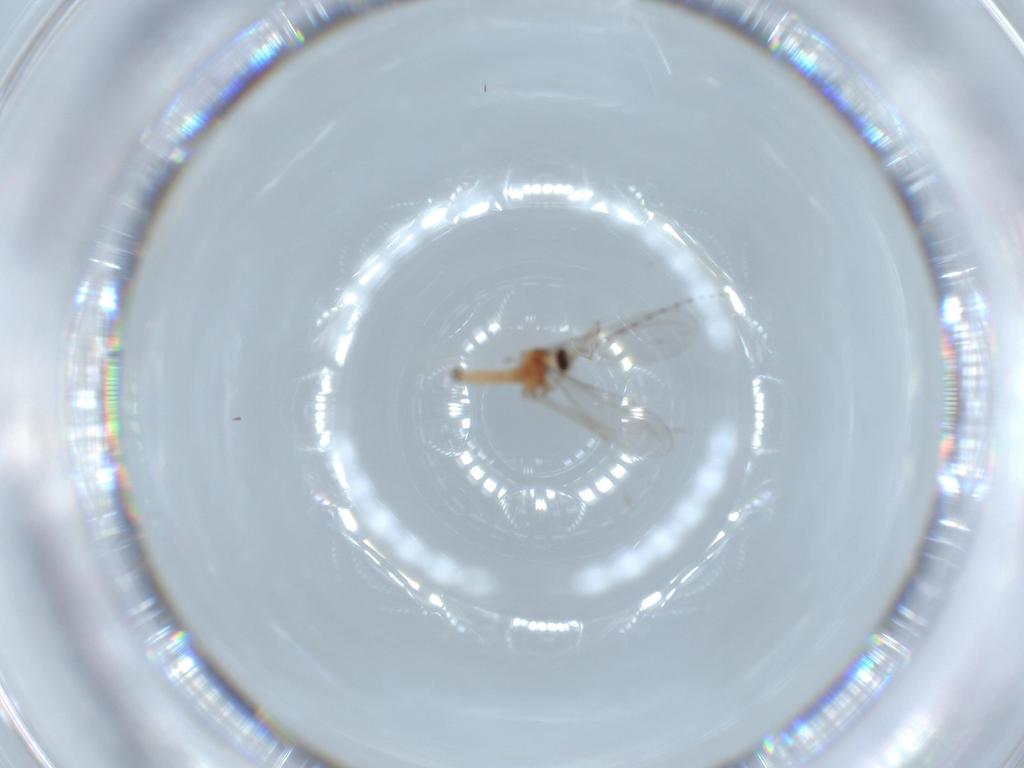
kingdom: Animalia
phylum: Arthropoda
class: Insecta
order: Diptera
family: Cecidomyiidae
